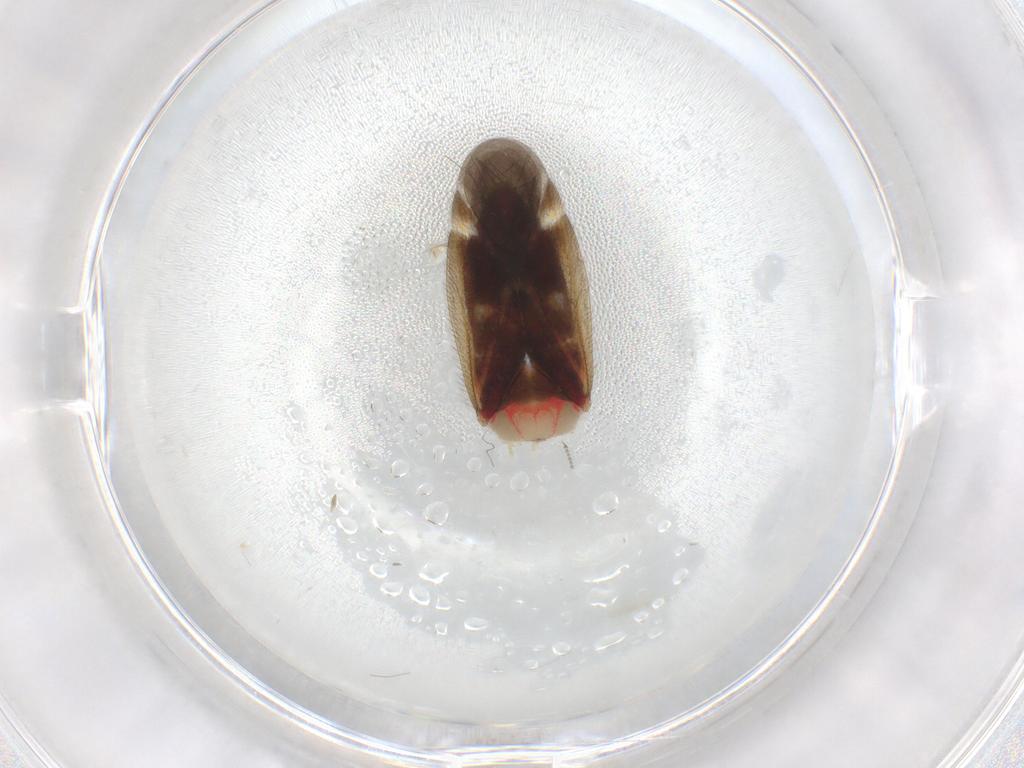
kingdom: Animalia
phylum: Arthropoda
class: Insecta
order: Hemiptera
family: Miridae
